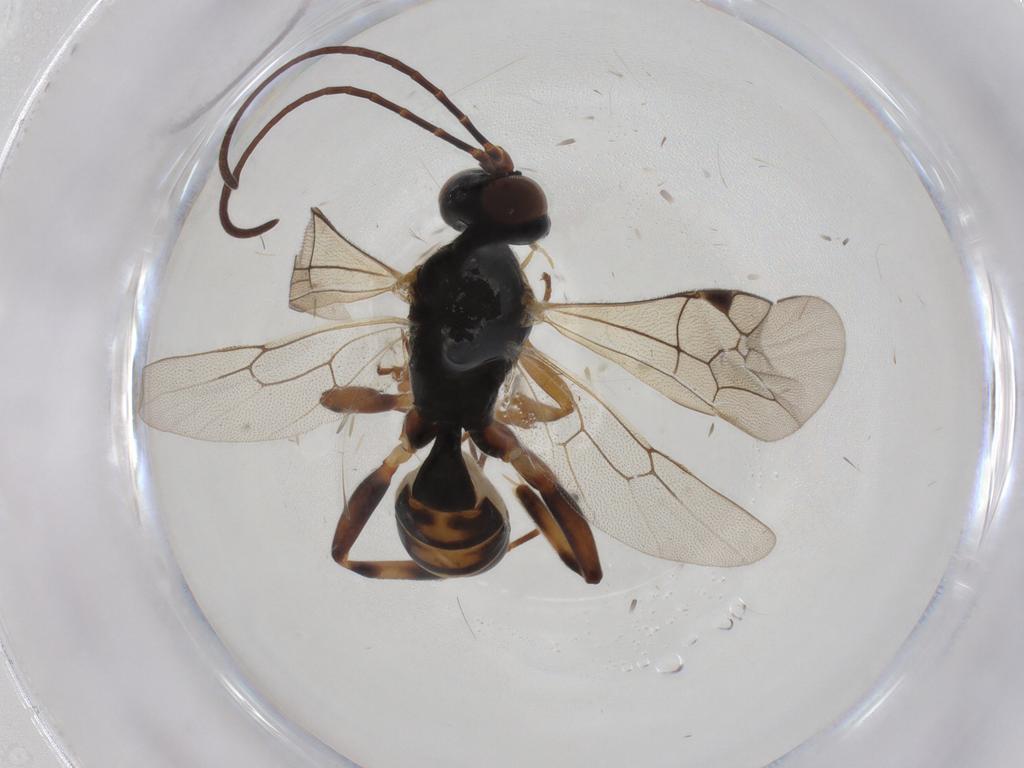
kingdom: Animalia
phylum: Arthropoda
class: Insecta
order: Hymenoptera
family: Ichneumonidae
